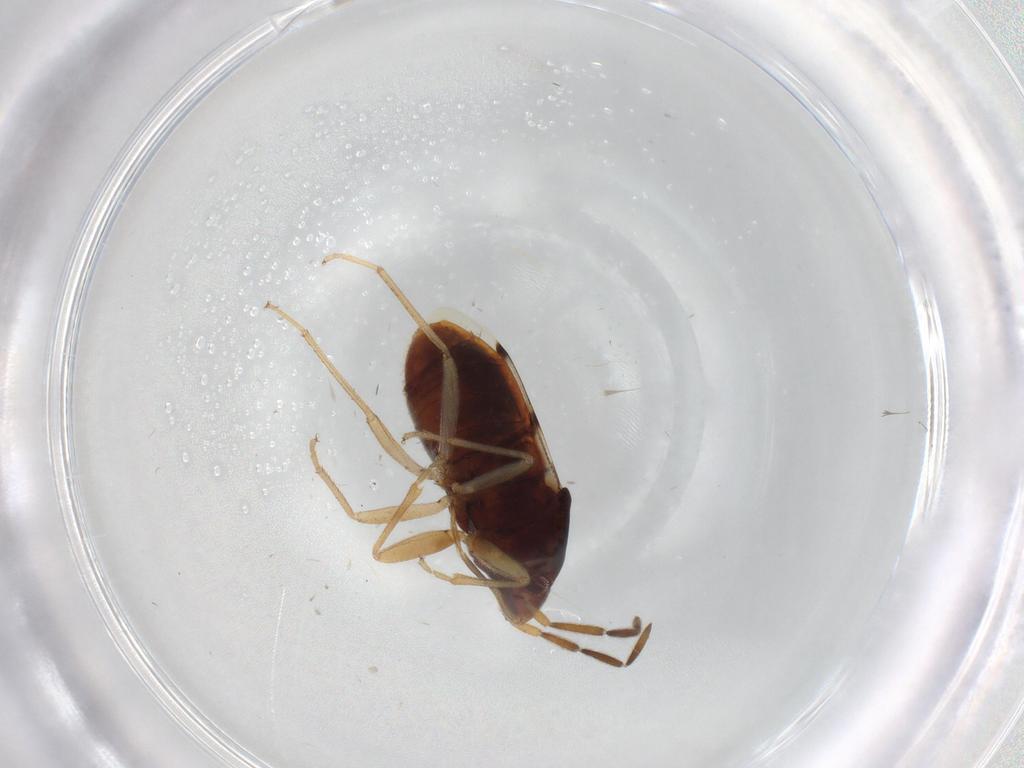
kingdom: Animalia
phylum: Arthropoda
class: Insecta
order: Hemiptera
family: Rhyparochromidae
